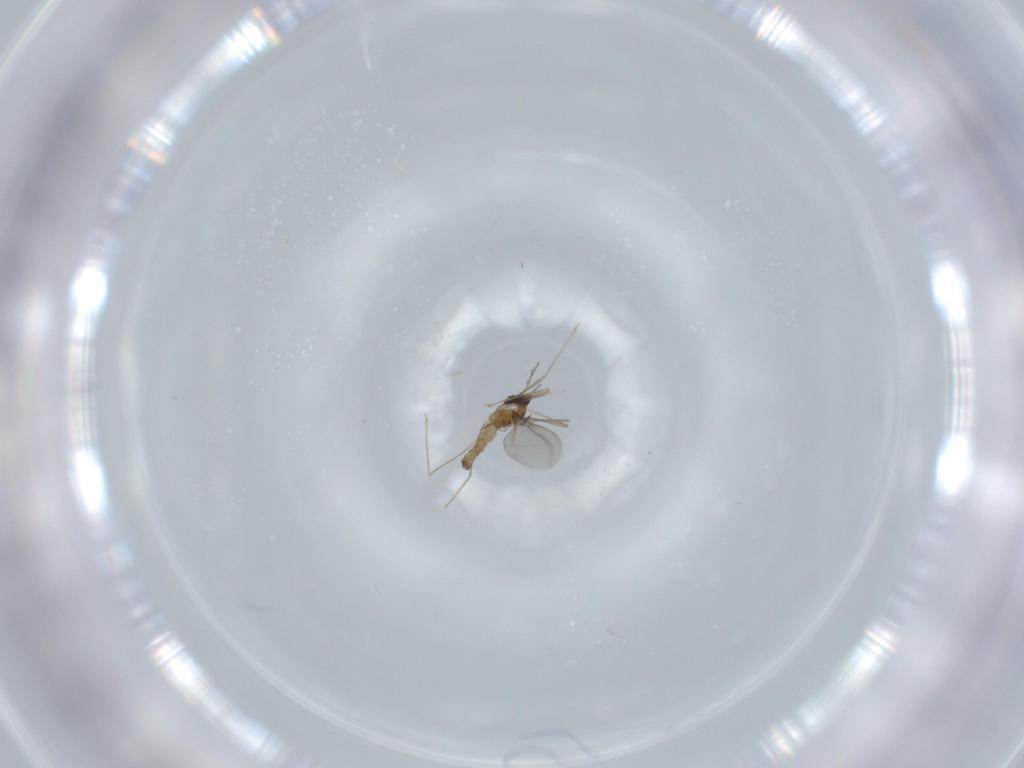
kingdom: Animalia
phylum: Arthropoda
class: Insecta
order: Diptera
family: Cecidomyiidae
